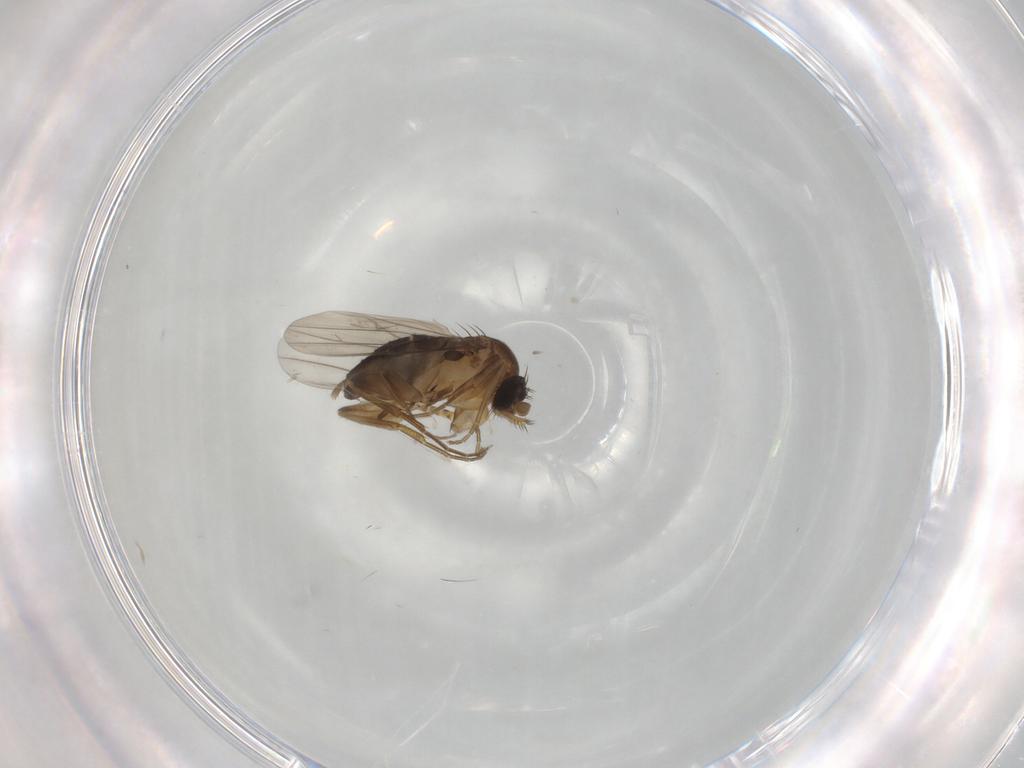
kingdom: Animalia
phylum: Arthropoda
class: Insecta
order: Diptera
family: Phoridae
